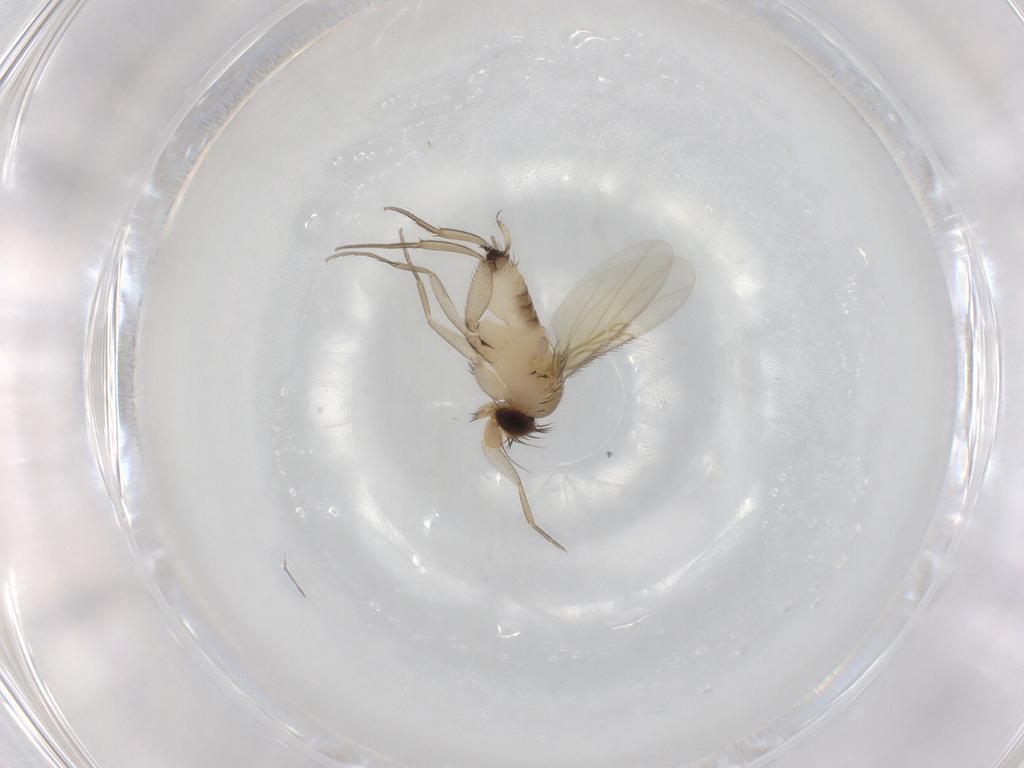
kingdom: Animalia
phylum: Arthropoda
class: Insecta
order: Diptera
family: Phoridae
